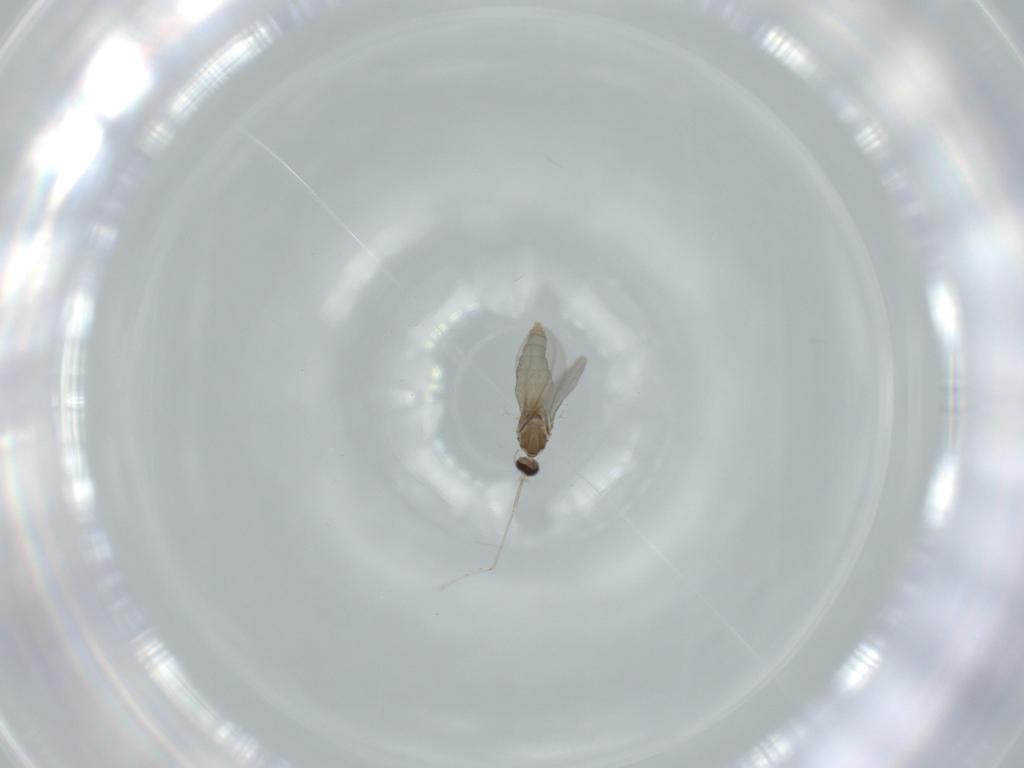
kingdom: Animalia
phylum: Arthropoda
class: Insecta
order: Diptera
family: Cecidomyiidae
